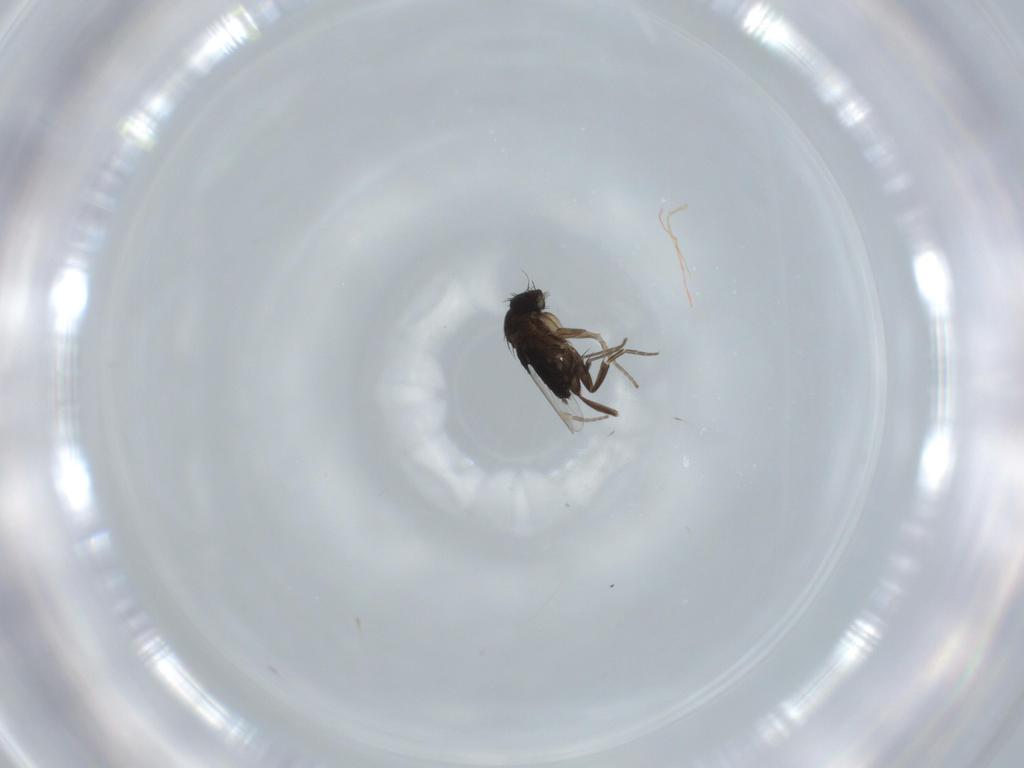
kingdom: Animalia
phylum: Arthropoda
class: Insecta
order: Diptera
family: Phoridae
